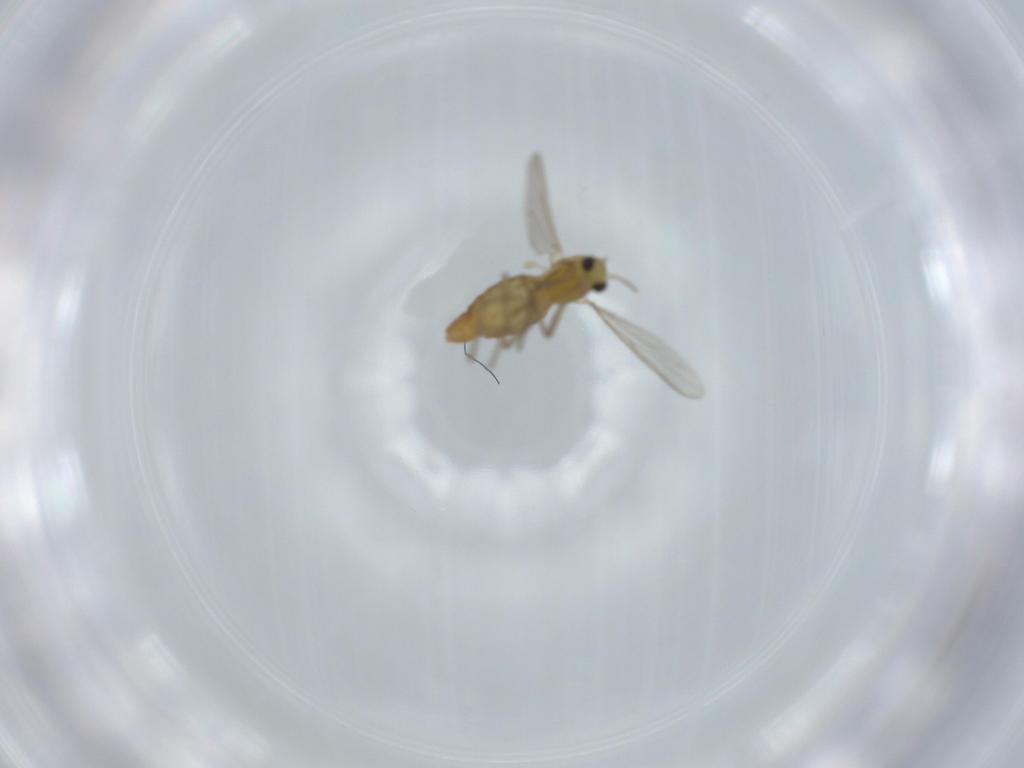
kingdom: Animalia
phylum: Arthropoda
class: Insecta
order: Diptera
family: Chironomidae
